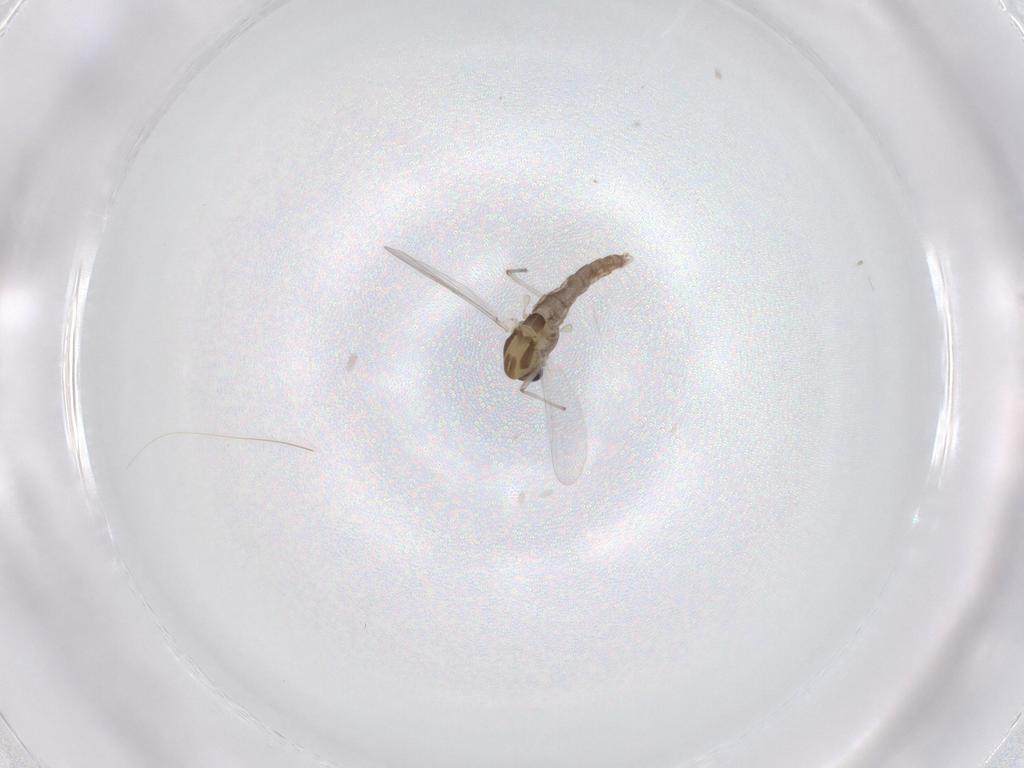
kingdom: Animalia
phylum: Arthropoda
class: Insecta
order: Diptera
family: Chironomidae
